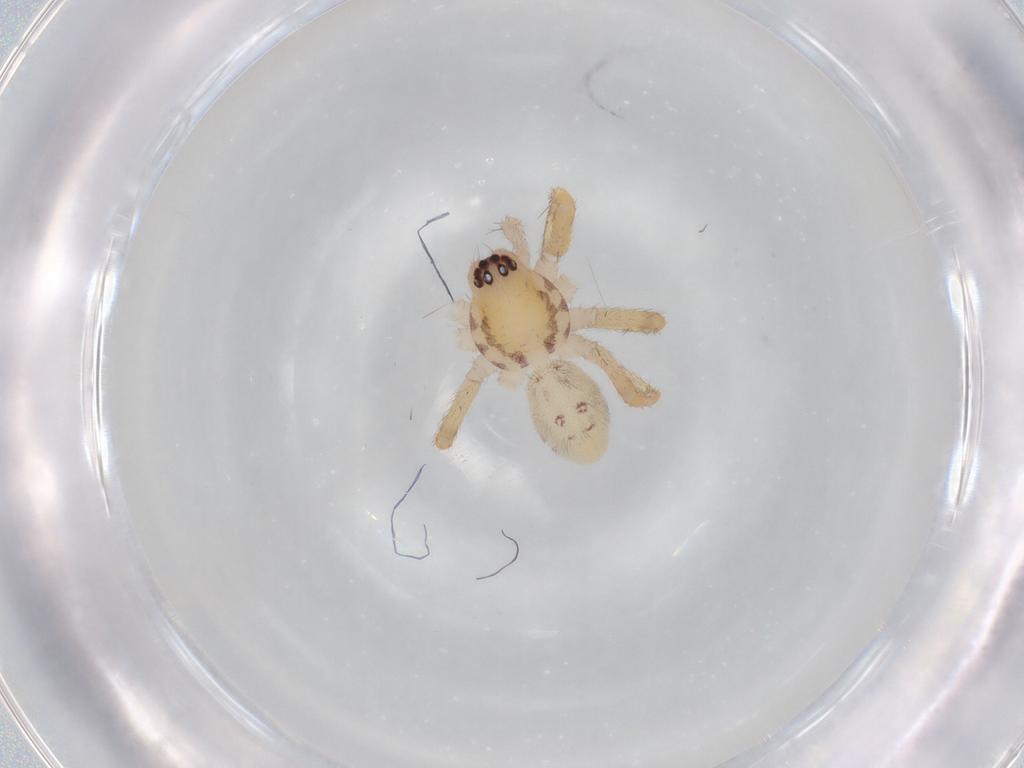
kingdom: Animalia
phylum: Arthropoda
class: Arachnida
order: Araneae
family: Corinnidae
